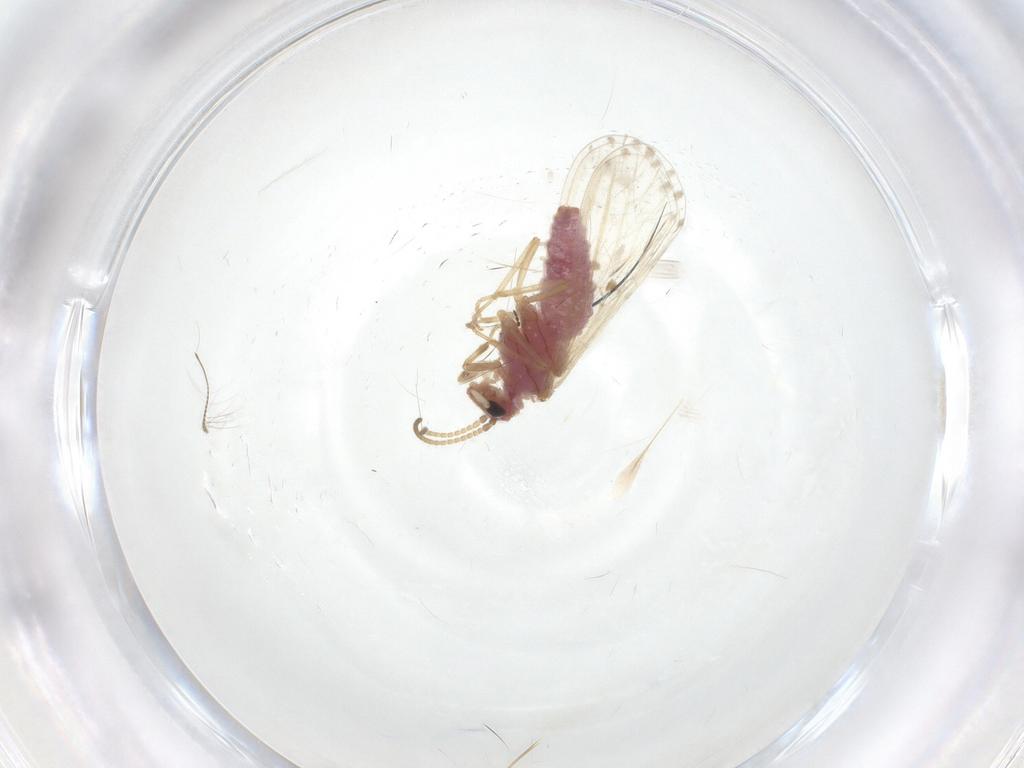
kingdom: Animalia
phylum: Arthropoda
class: Insecta
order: Neuroptera
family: Coniopterygidae
